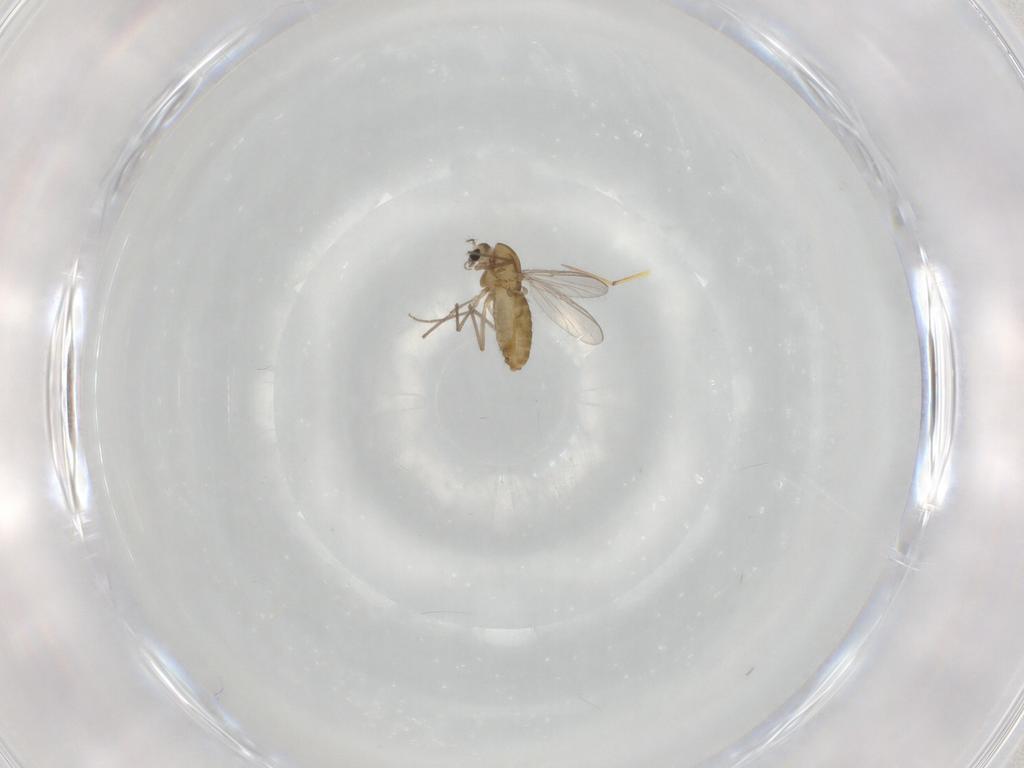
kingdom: Animalia
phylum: Arthropoda
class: Insecta
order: Diptera
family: Chironomidae
